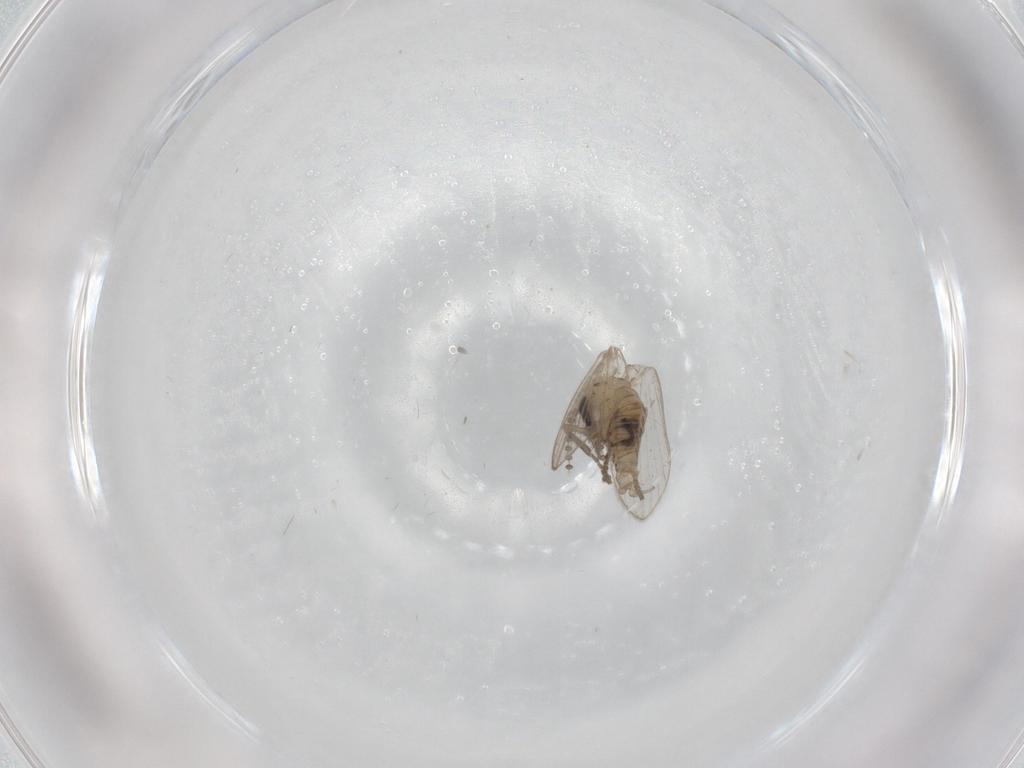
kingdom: Animalia
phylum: Arthropoda
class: Insecta
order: Diptera
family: Psychodidae
